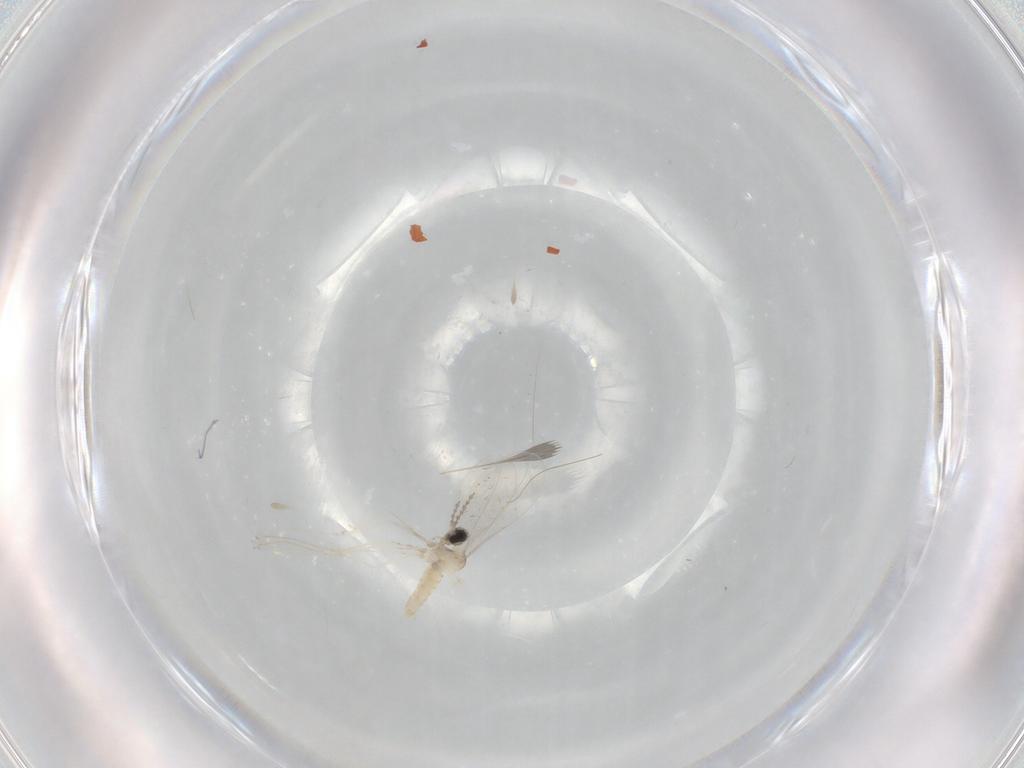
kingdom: Animalia
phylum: Arthropoda
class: Insecta
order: Diptera
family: Cecidomyiidae
